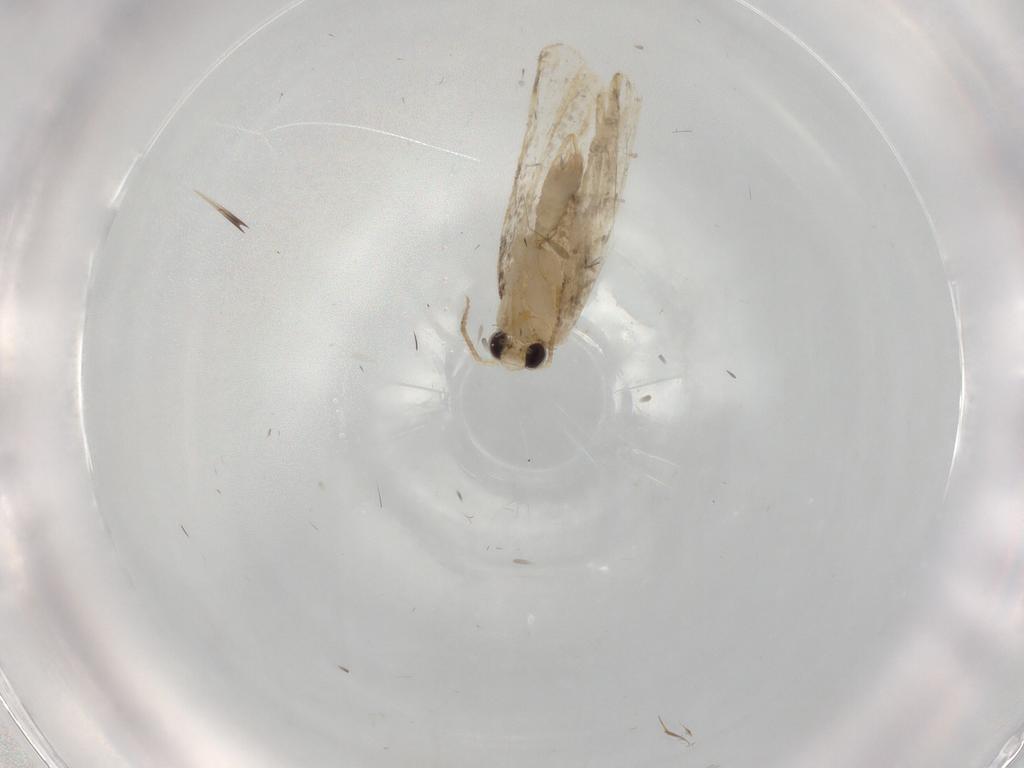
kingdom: Animalia
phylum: Arthropoda
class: Insecta
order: Lepidoptera
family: Psychidae
